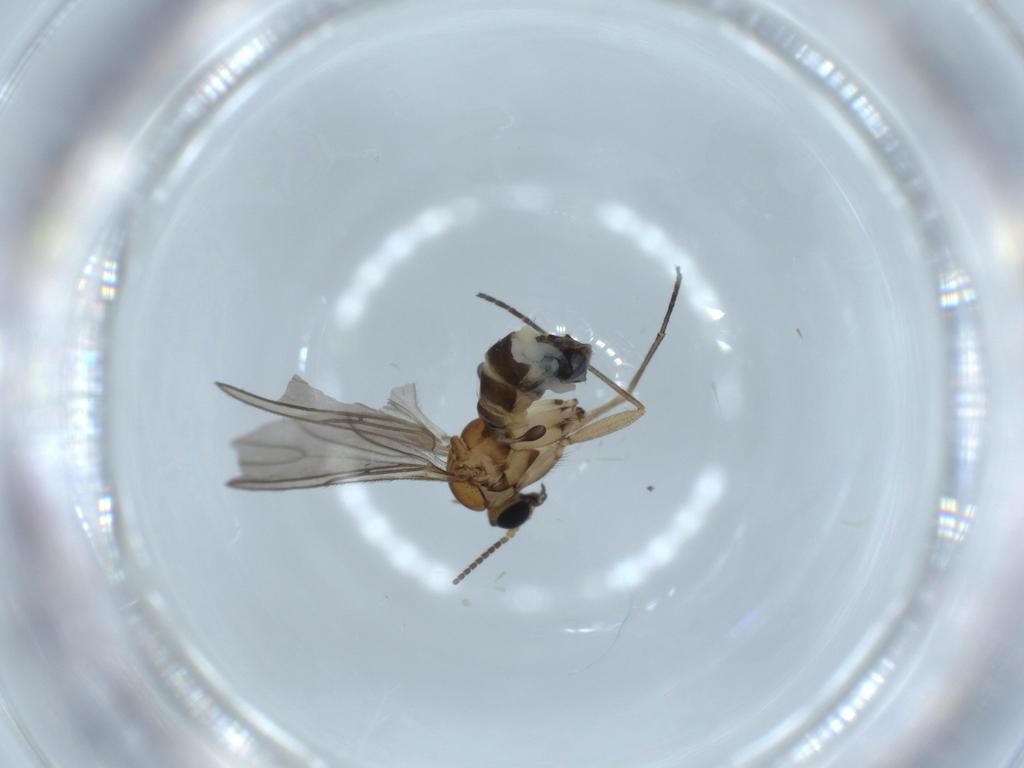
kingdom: Animalia
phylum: Arthropoda
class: Insecta
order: Diptera
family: Sciaridae
